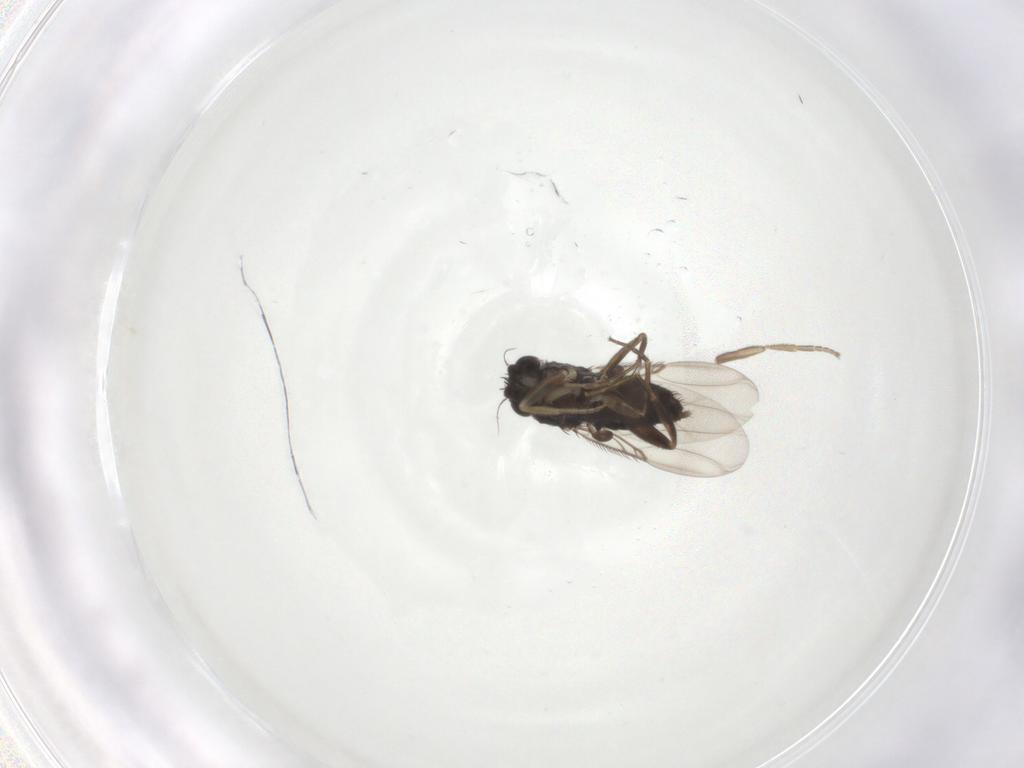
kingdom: Animalia
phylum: Arthropoda
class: Insecta
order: Diptera
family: Phoridae
